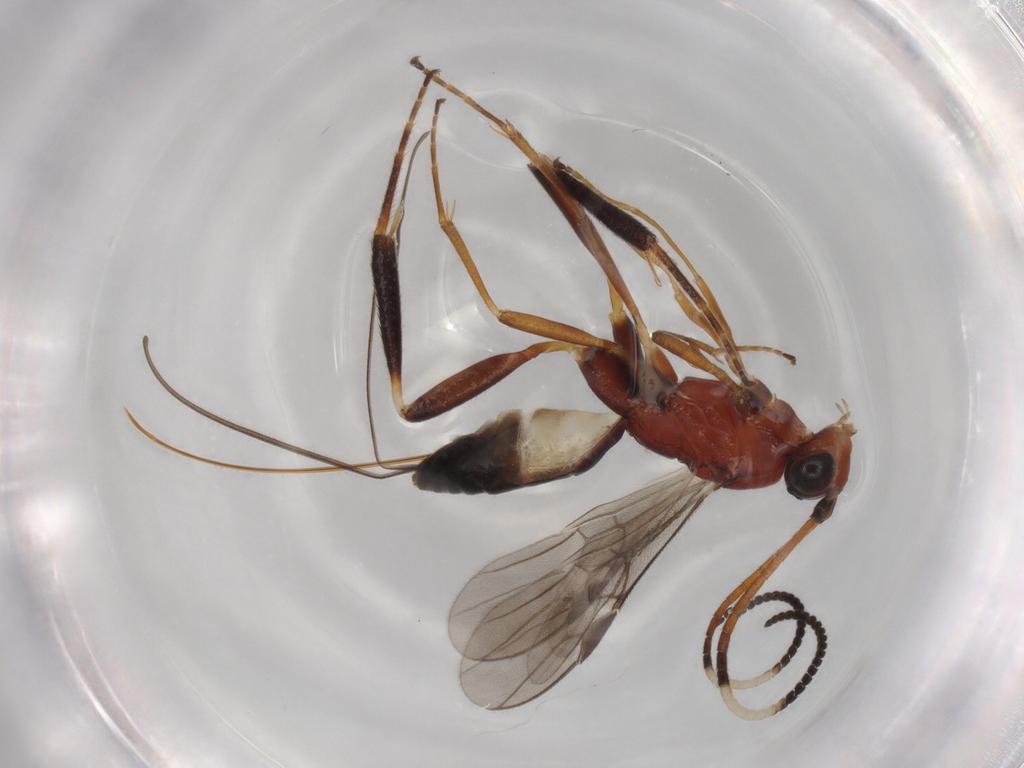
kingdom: Animalia
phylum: Arthropoda
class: Insecta
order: Hymenoptera
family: Braconidae
